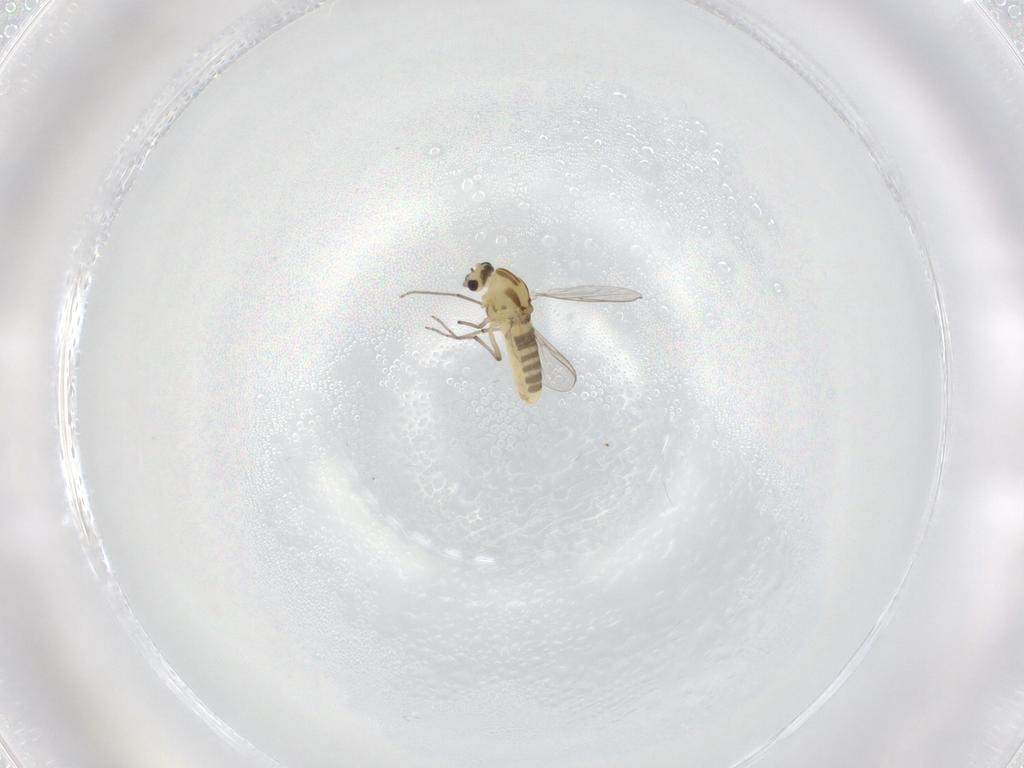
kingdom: Animalia
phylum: Arthropoda
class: Insecta
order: Diptera
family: Chironomidae
